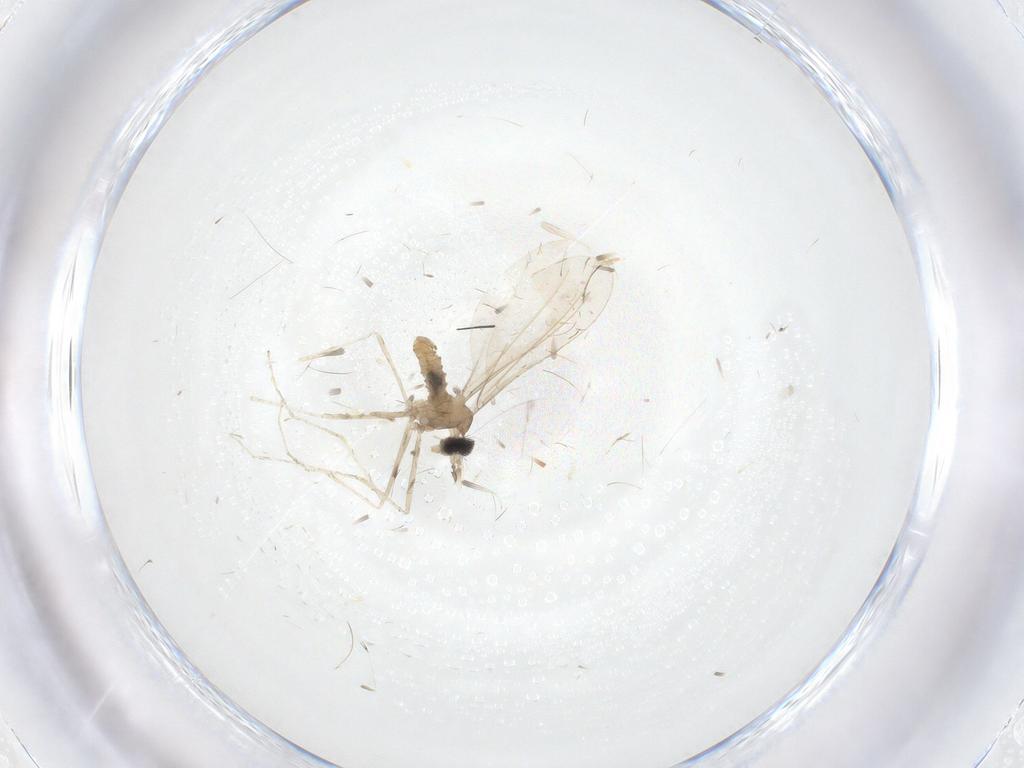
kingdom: Animalia
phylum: Arthropoda
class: Insecta
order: Diptera
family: Cecidomyiidae
